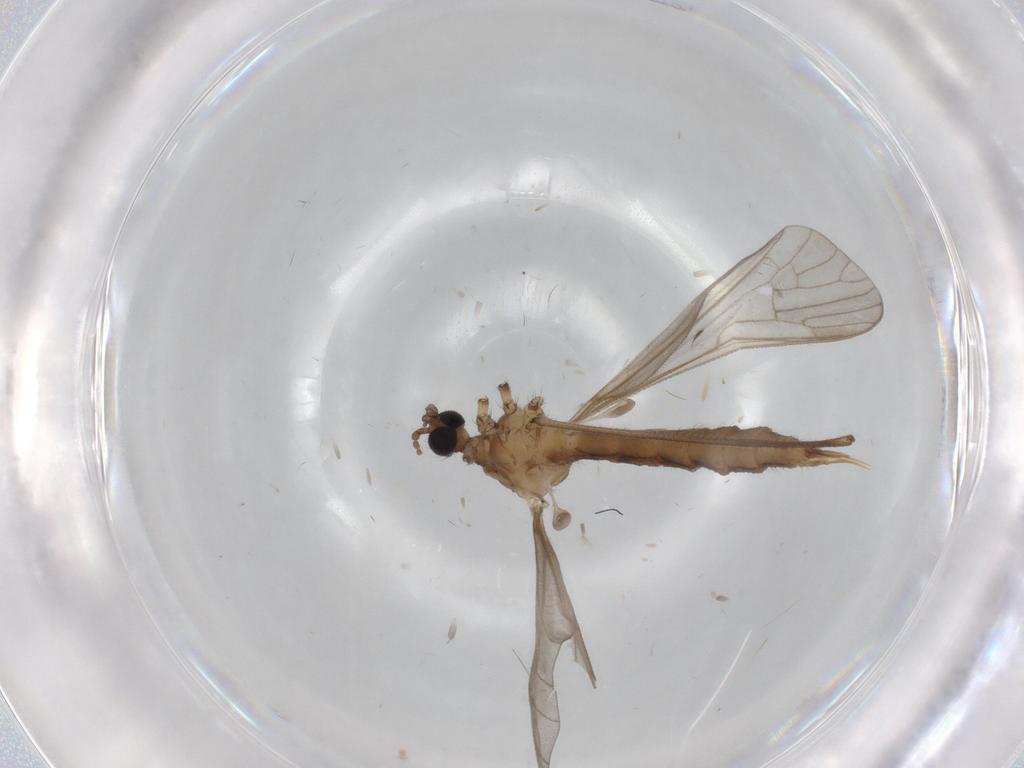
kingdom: Animalia
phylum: Arthropoda
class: Insecta
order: Diptera
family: Limoniidae
